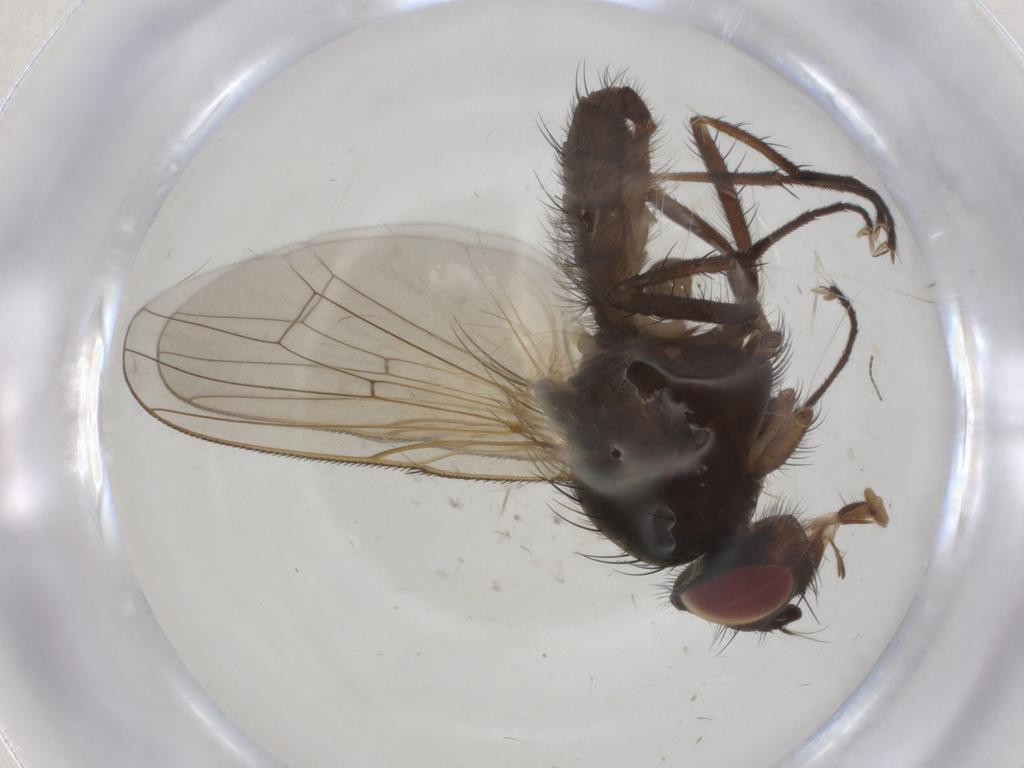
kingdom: Animalia
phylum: Arthropoda
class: Insecta
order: Diptera
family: Anthomyiidae
